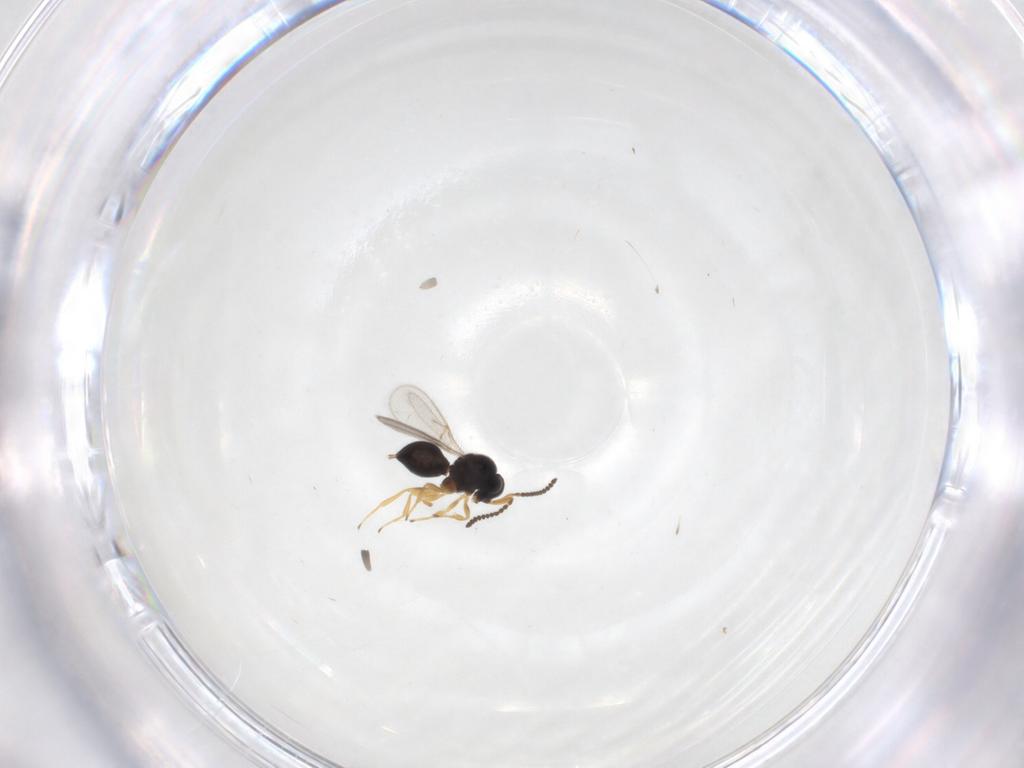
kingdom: Animalia
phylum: Arthropoda
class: Insecta
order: Hymenoptera
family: Scelionidae
